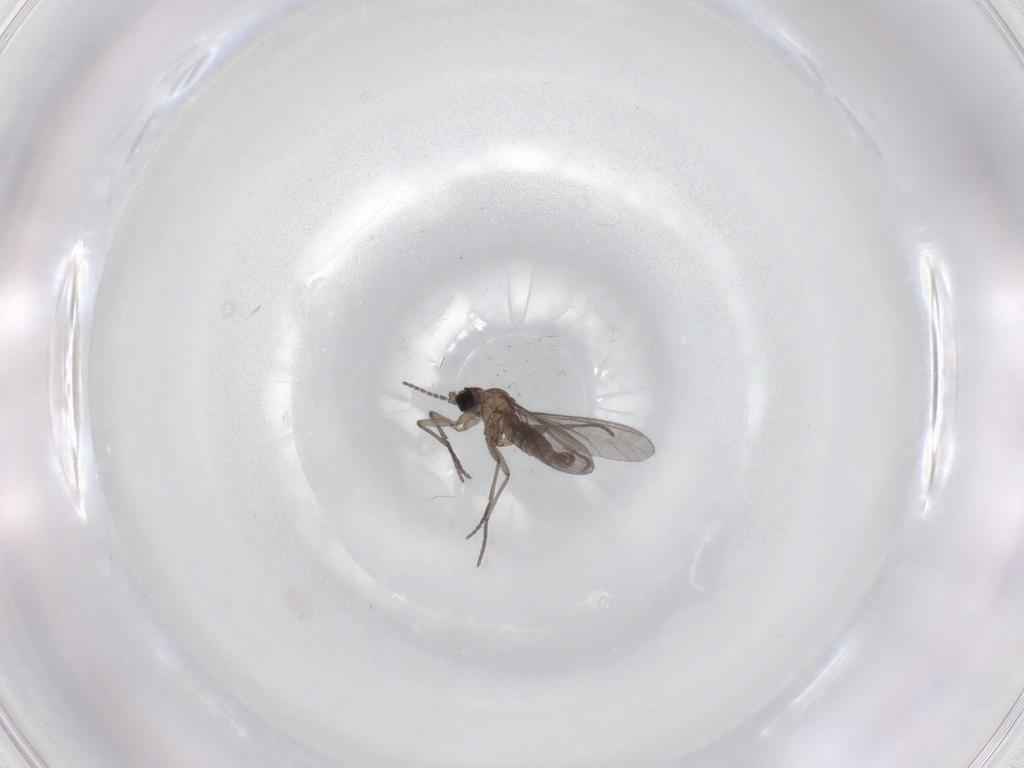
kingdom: Animalia
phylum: Arthropoda
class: Insecta
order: Diptera
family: Sciaridae
